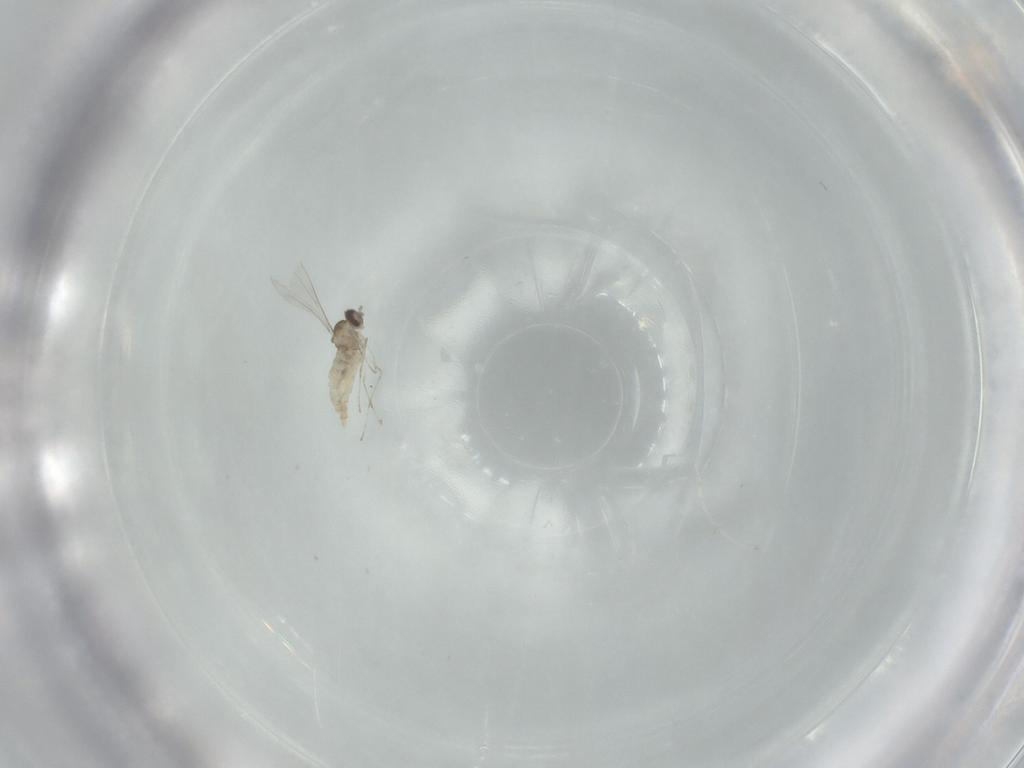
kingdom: Animalia
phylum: Arthropoda
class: Insecta
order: Diptera
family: Cecidomyiidae
